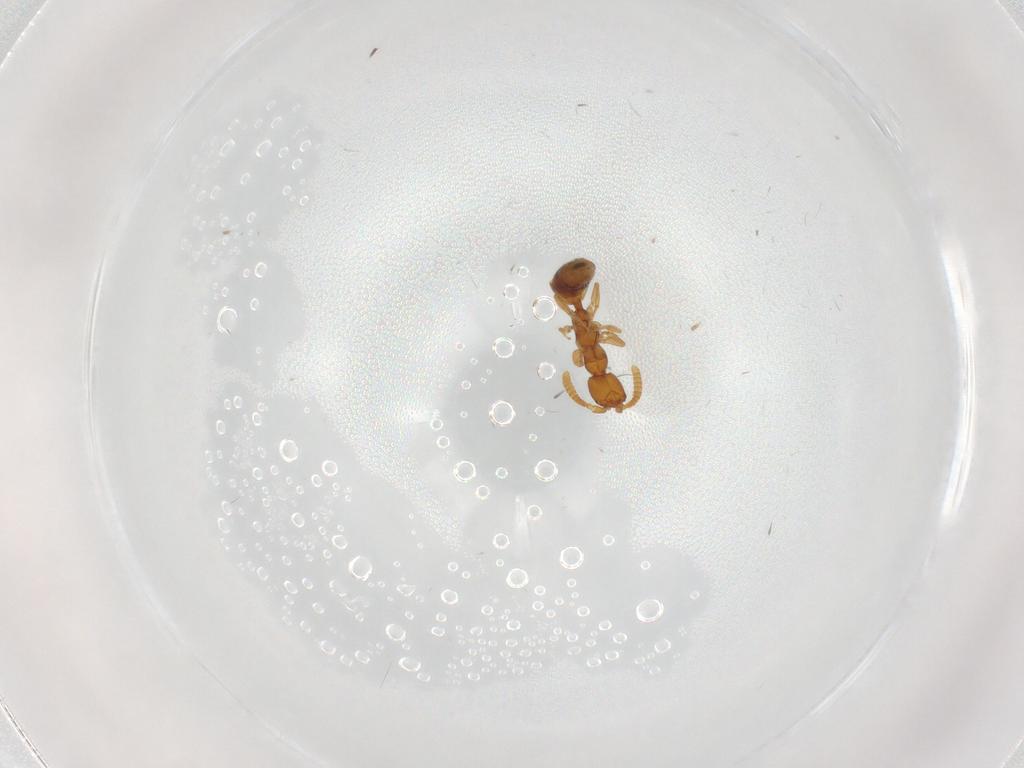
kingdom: Animalia
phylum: Arthropoda
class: Insecta
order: Hymenoptera
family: Bethylidae
